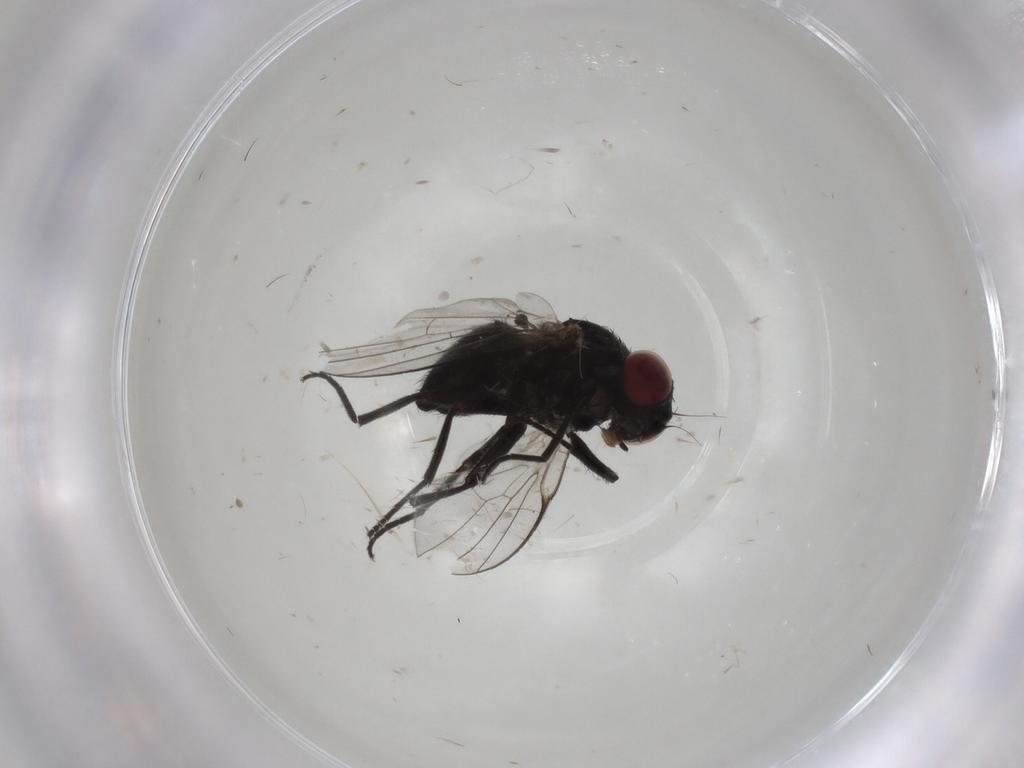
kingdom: Animalia
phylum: Arthropoda
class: Insecta
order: Diptera
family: Agromyzidae
